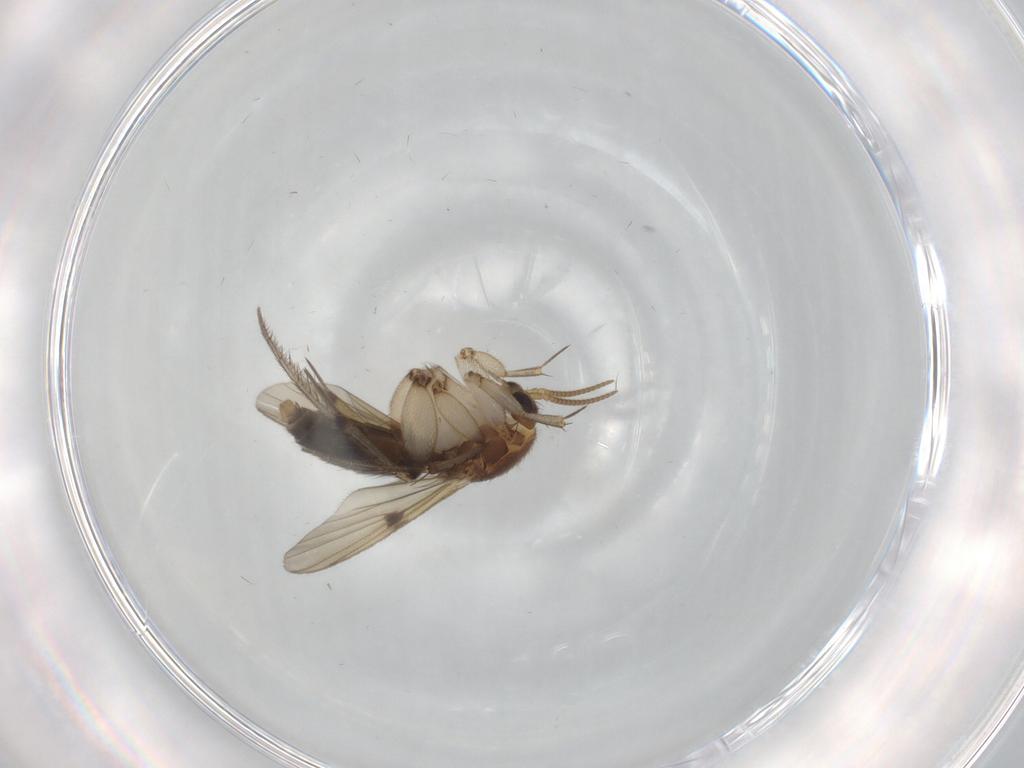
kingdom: Animalia
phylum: Arthropoda
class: Insecta
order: Diptera
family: Mycetophilidae
